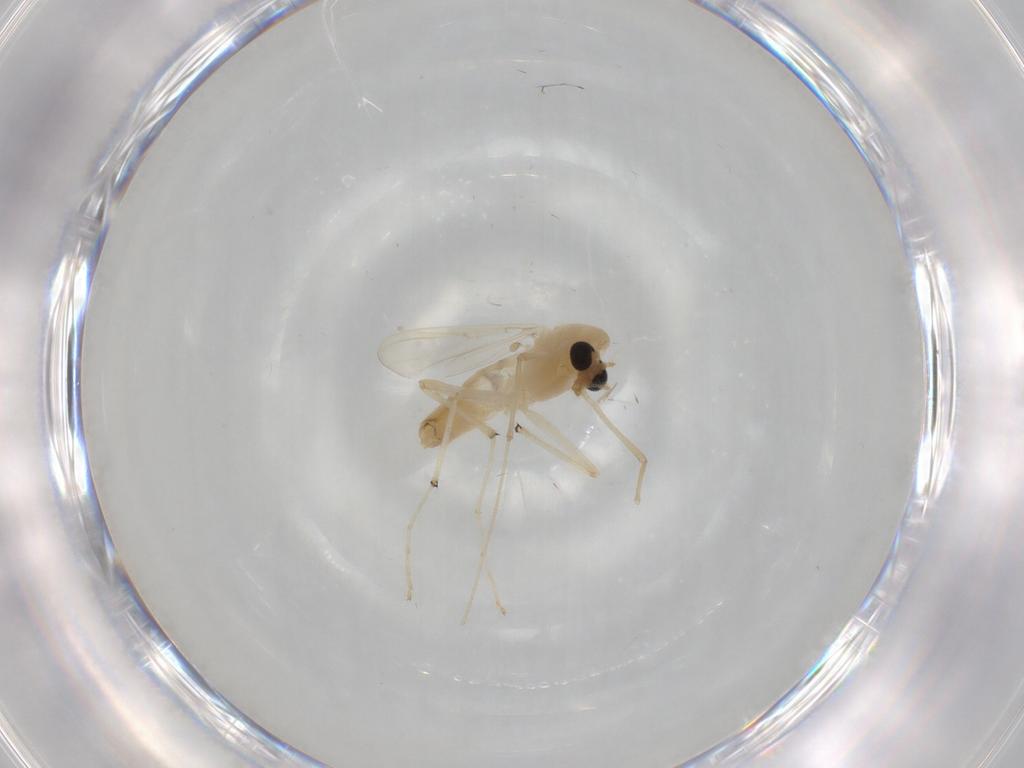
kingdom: Animalia
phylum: Arthropoda
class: Insecta
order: Diptera
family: Chironomidae
